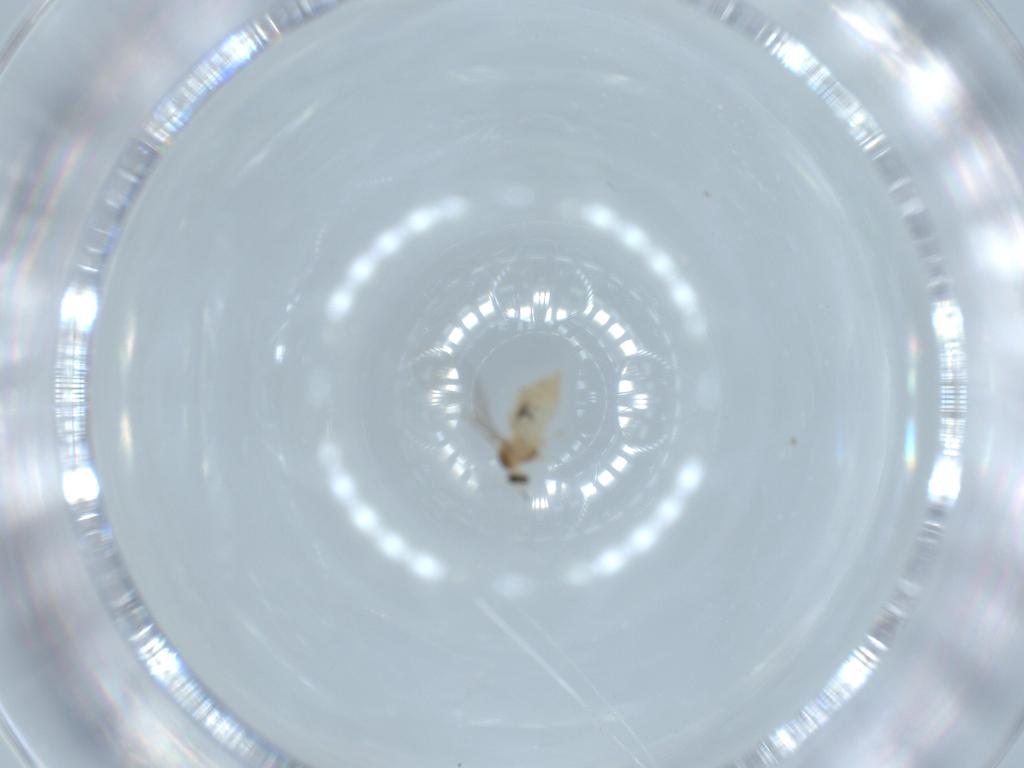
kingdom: Animalia
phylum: Arthropoda
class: Insecta
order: Diptera
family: Cecidomyiidae
